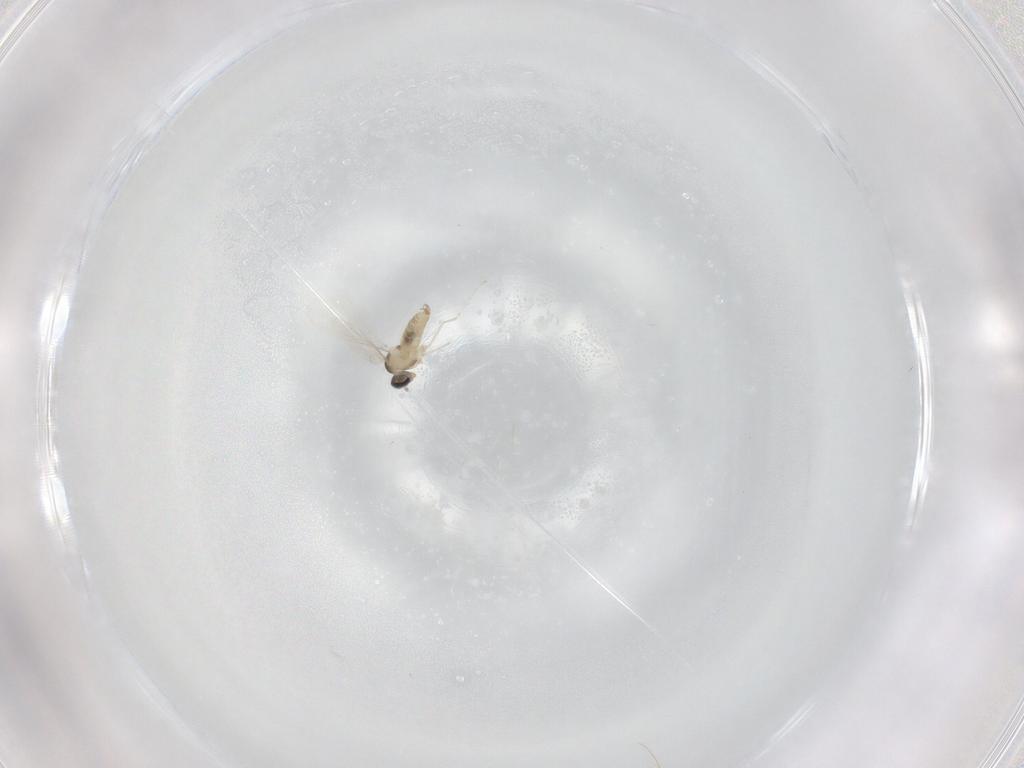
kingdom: Animalia
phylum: Arthropoda
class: Insecta
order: Diptera
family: Cecidomyiidae
